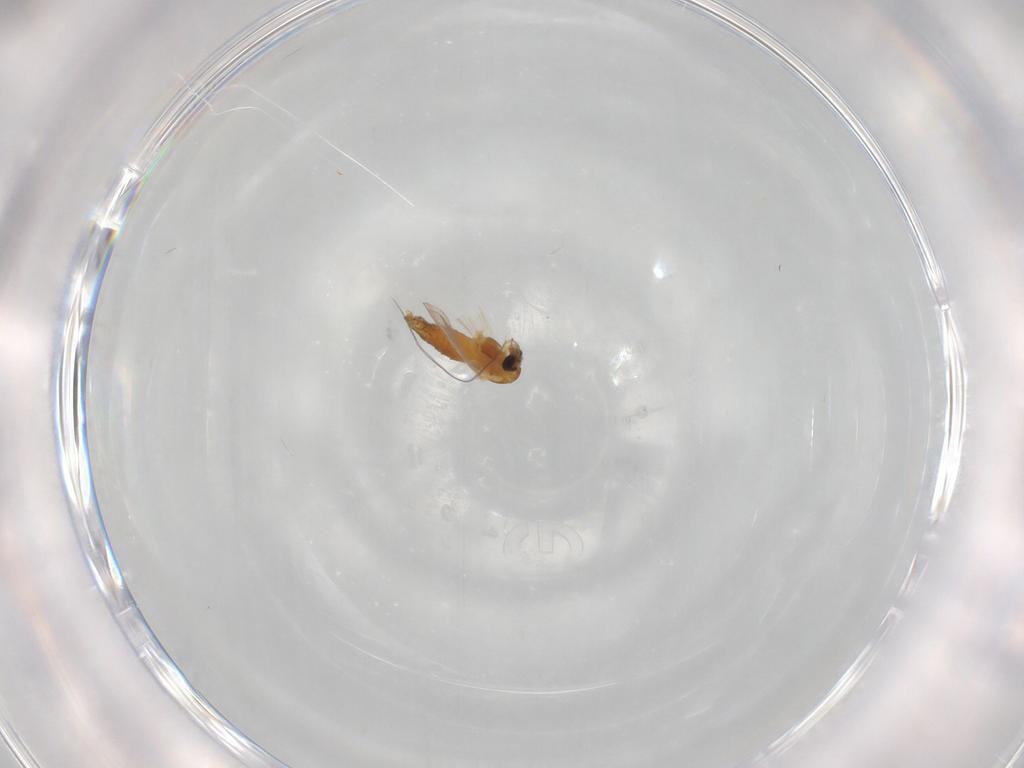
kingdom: Animalia
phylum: Arthropoda
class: Insecta
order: Diptera
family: Chironomidae
